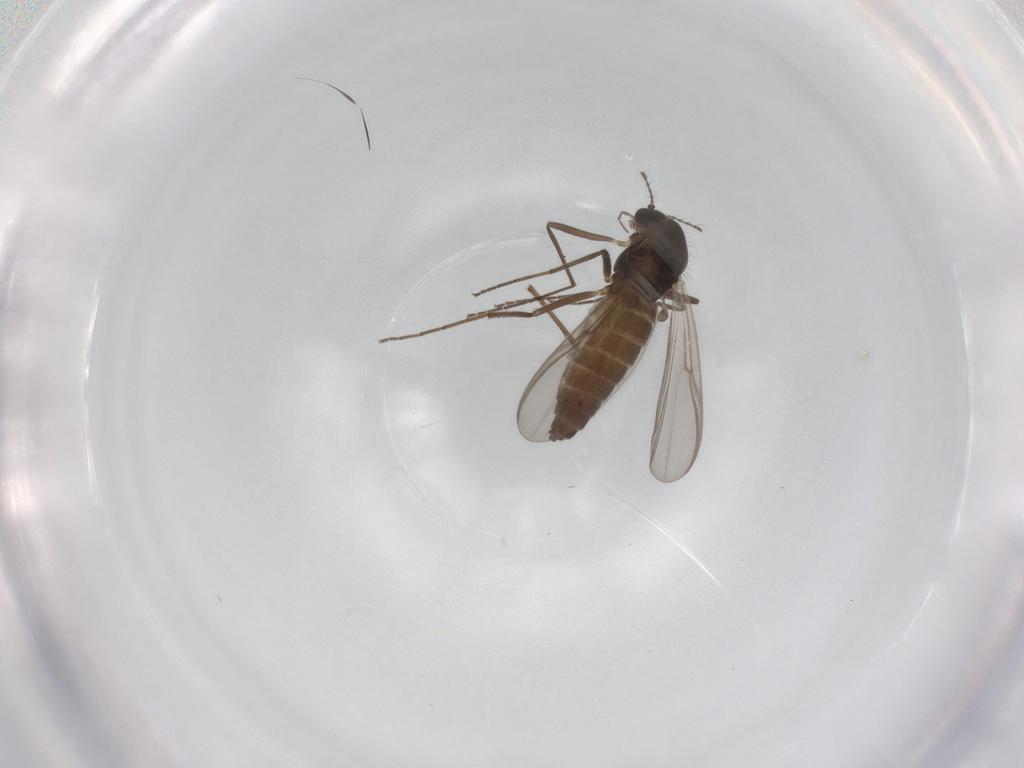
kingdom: Animalia
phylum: Arthropoda
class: Insecta
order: Diptera
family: Chironomidae
